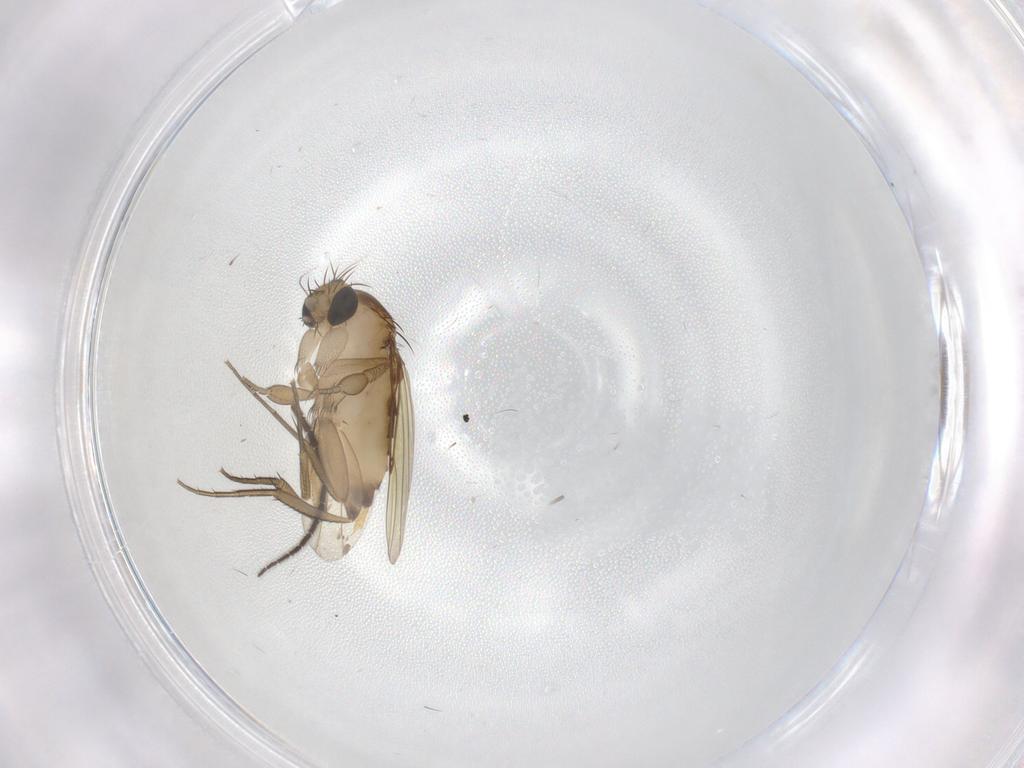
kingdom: Animalia
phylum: Arthropoda
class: Insecta
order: Diptera
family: Phoridae
